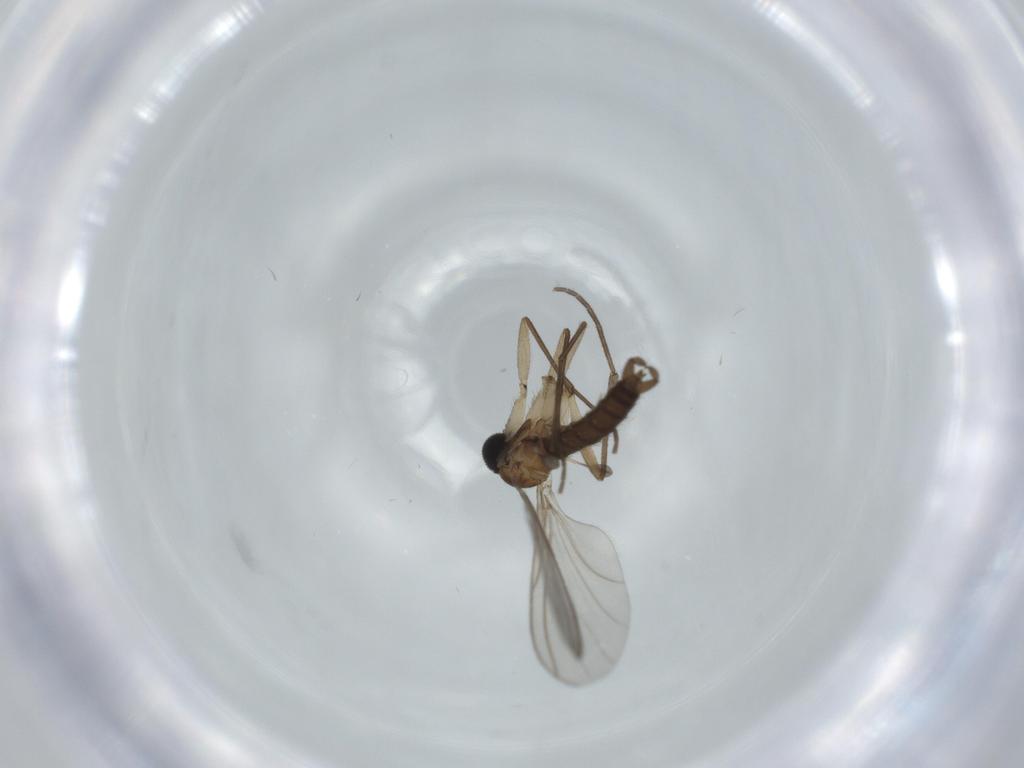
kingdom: Animalia
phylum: Arthropoda
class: Insecta
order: Diptera
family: Sciaridae
